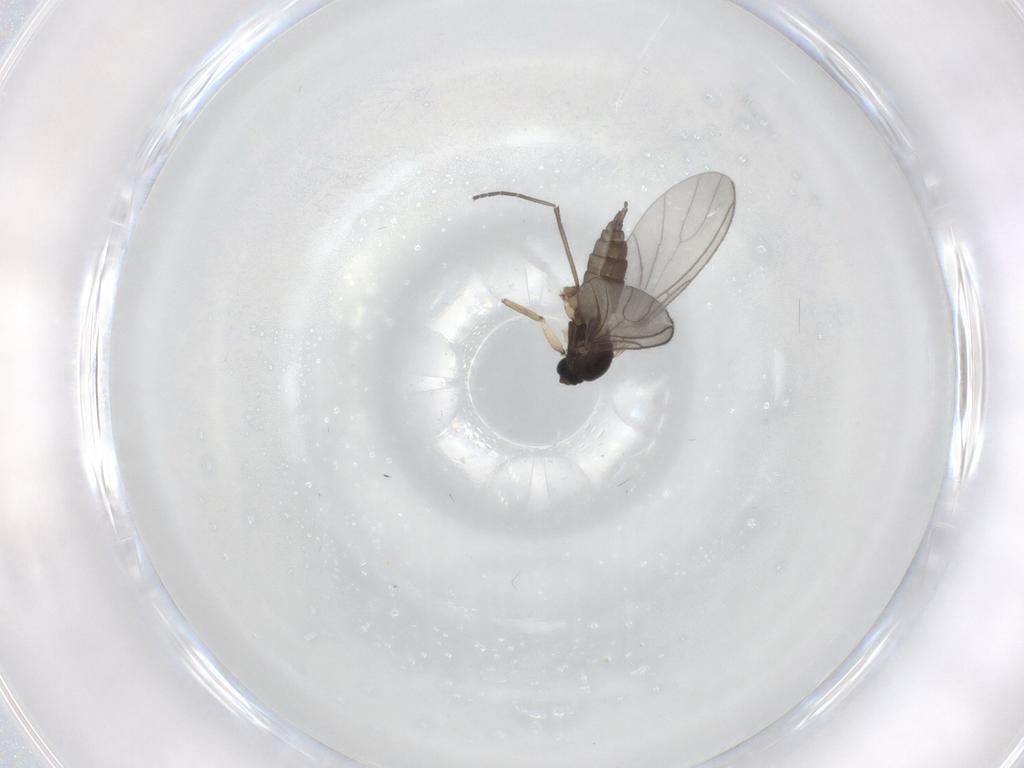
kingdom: Animalia
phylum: Arthropoda
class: Insecta
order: Diptera
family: Sciaridae
